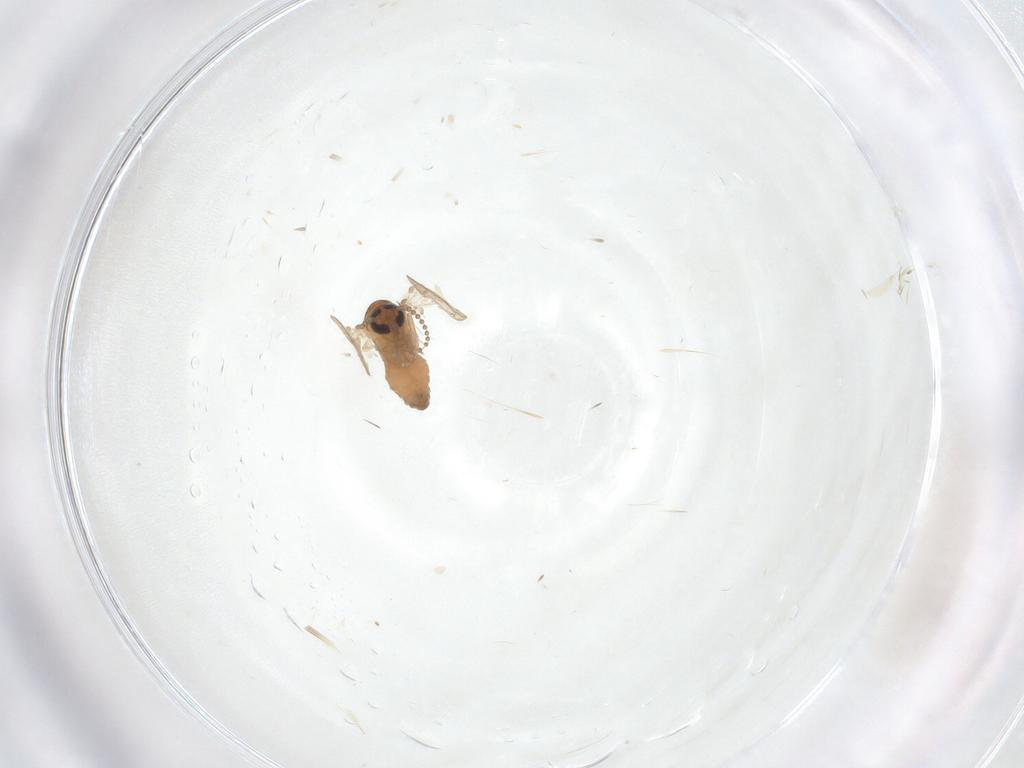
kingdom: Animalia
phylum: Arthropoda
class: Insecta
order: Diptera
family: Psychodidae
